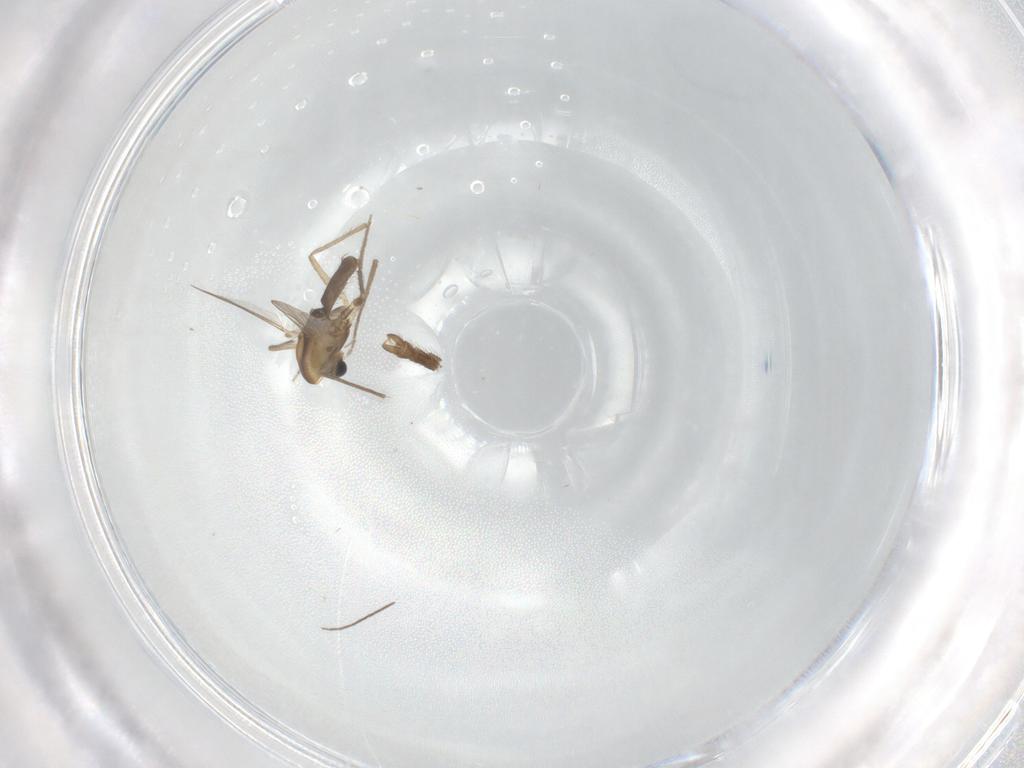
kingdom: Animalia
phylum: Arthropoda
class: Insecta
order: Diptera
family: Chironomidae
